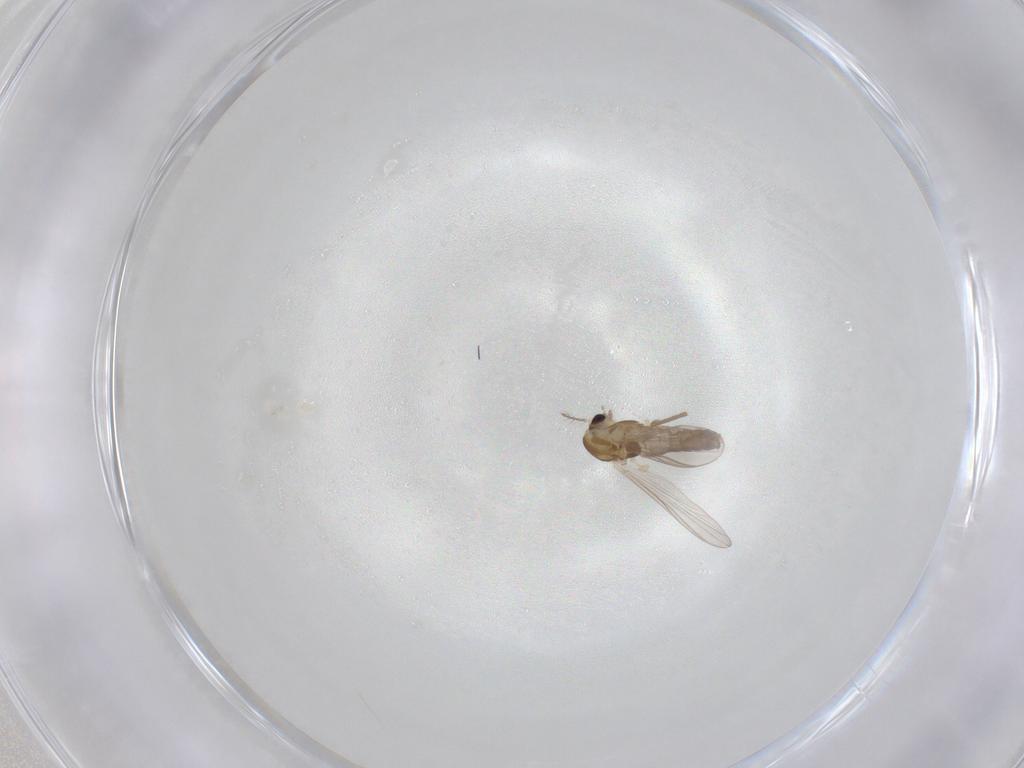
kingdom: Animalia
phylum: Arthropoda
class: Insecta
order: Diptera
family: Chironomidae
